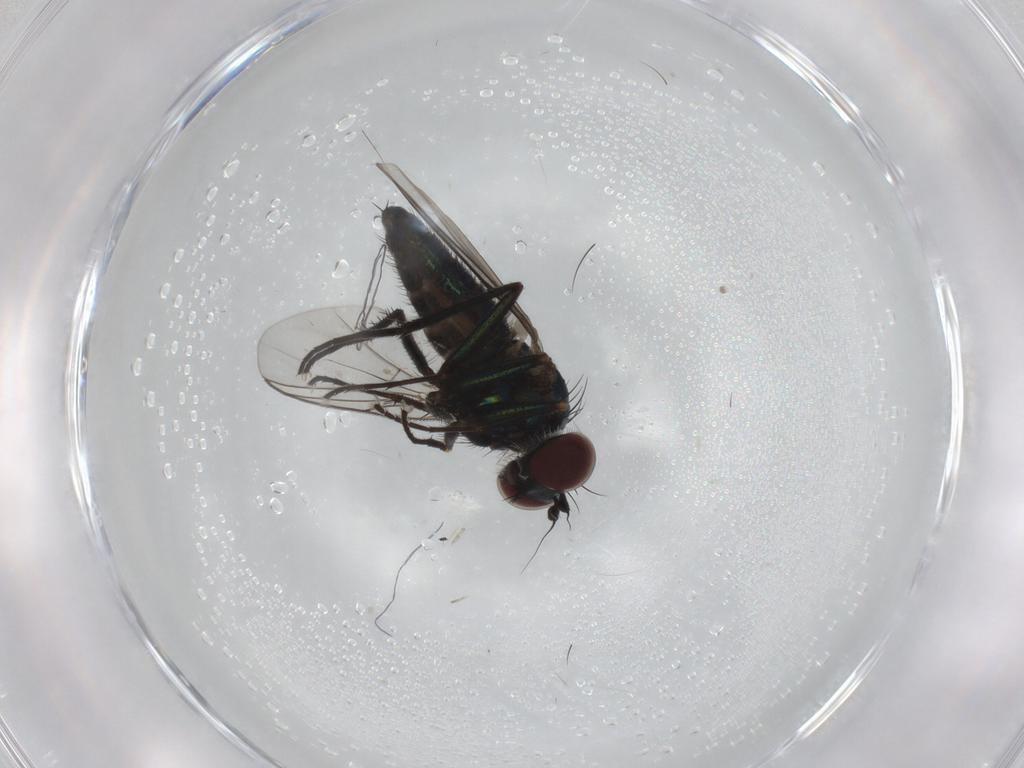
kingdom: Animalia
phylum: Arthropoda
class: Insecta
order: Diptera
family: Dolichopodidae
